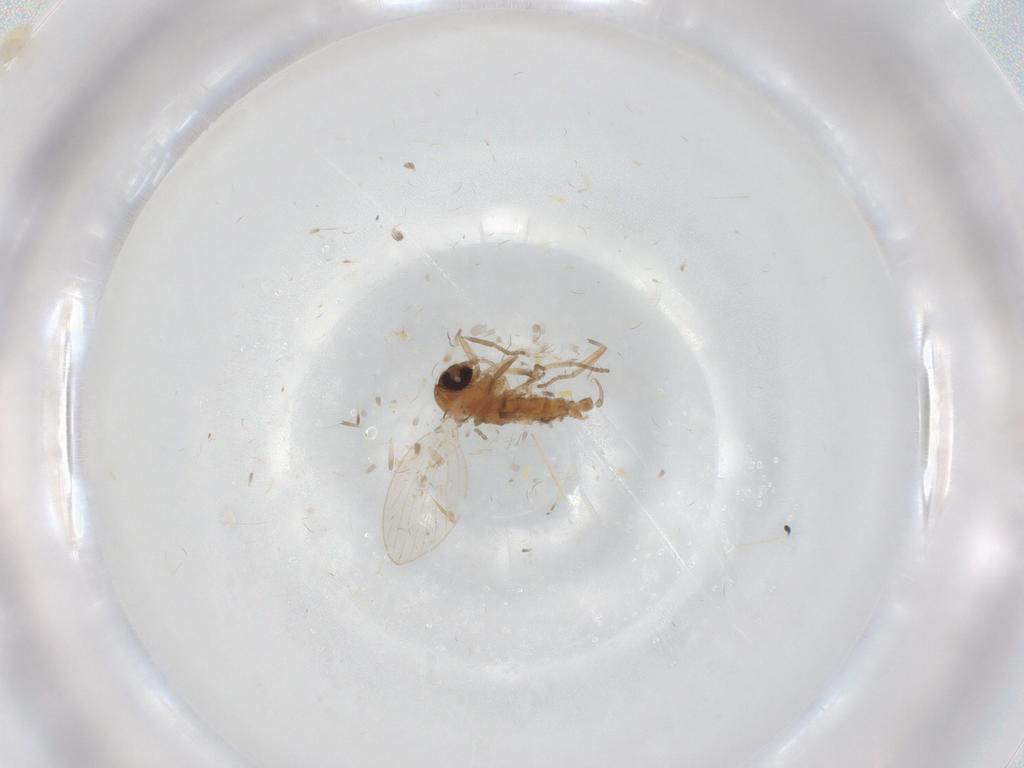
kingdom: Animalia
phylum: Arthropoda
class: Insecta
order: Diptera
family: Psychodidae
